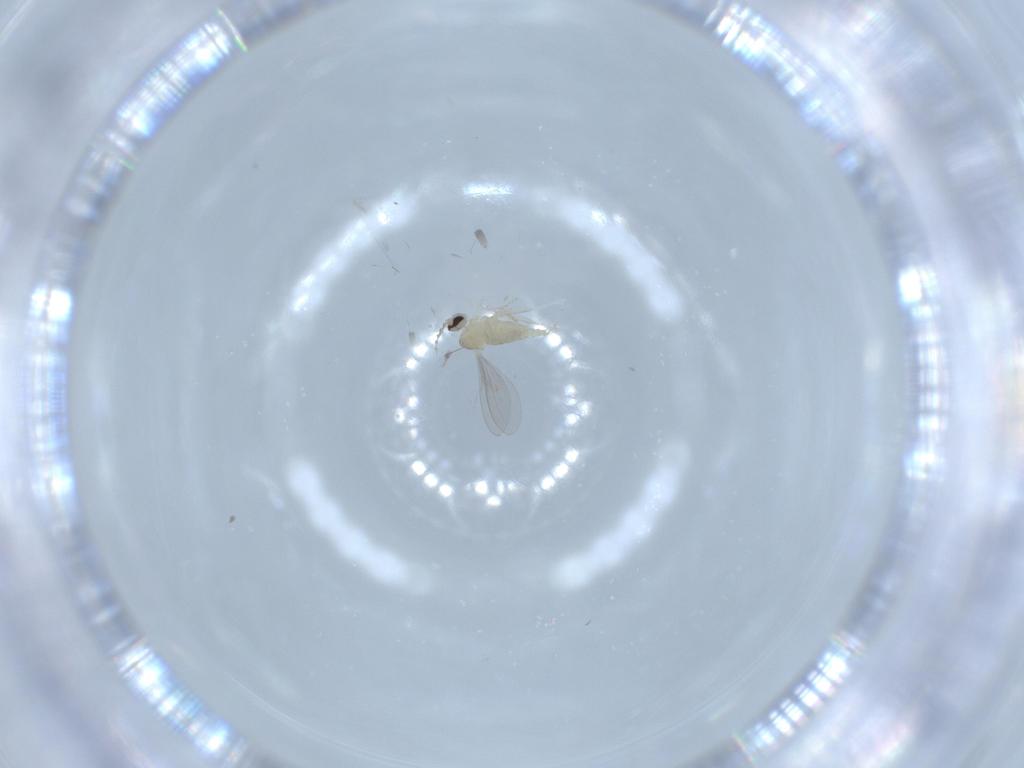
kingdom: Animalia
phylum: Arthropoda
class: Insecta
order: Diptera
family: Cecidomyiidae
